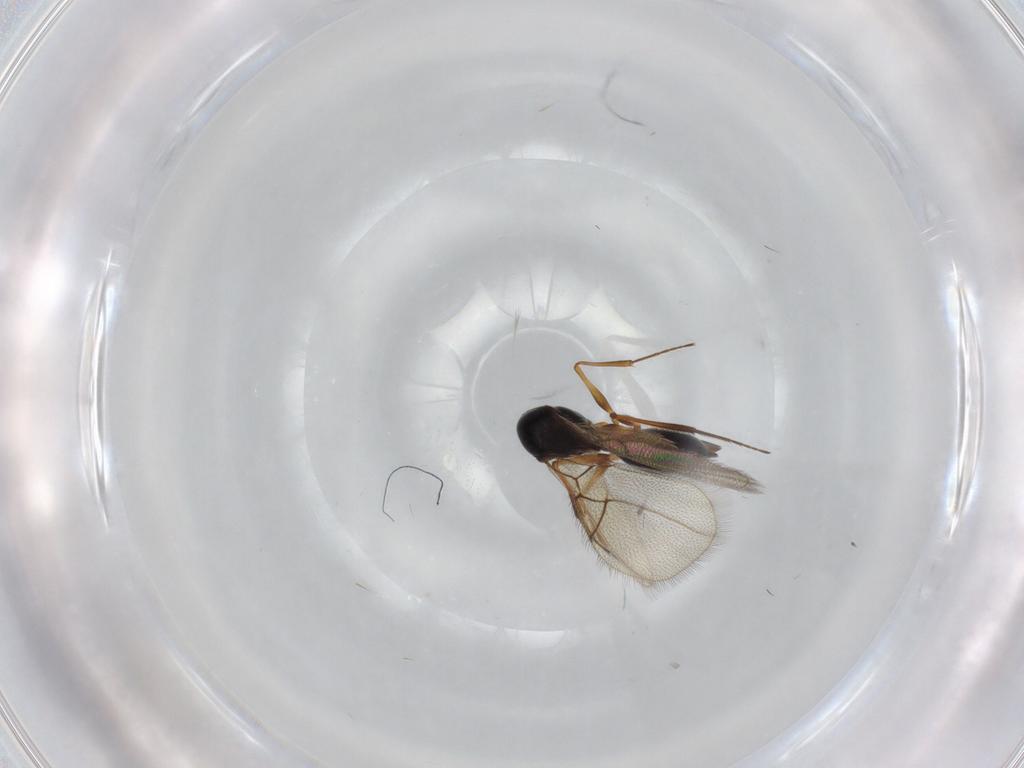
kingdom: Animalia
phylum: Arthropoda
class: Insecta
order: Hymenoptera
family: Figitidae
